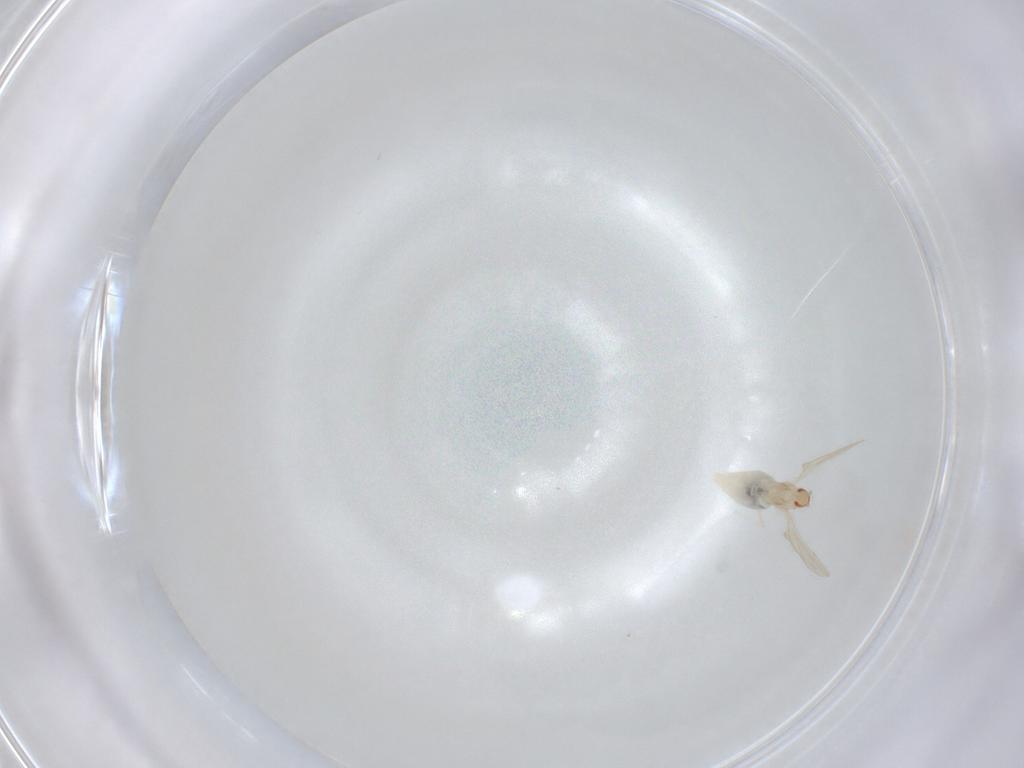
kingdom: Animalia
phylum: Arthropoda
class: Insecta
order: Diptera
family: Cecidomyiidae
